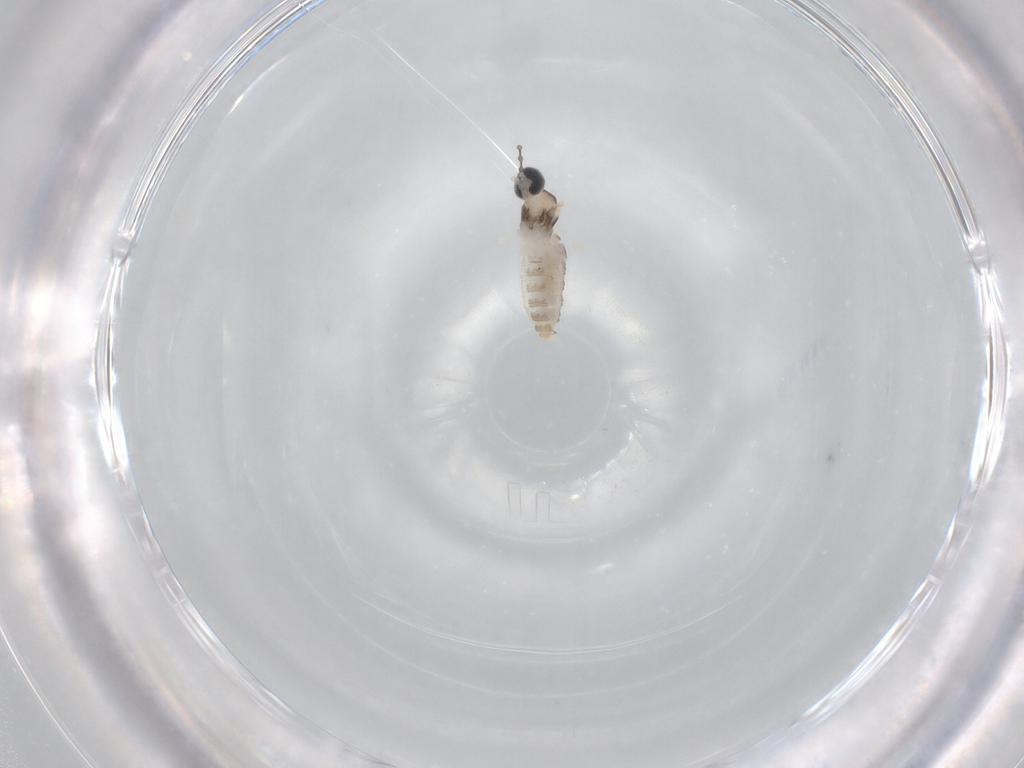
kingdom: Animalia
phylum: Arthropoda
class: Insecta
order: Diptera
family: Cecidomyiidae
